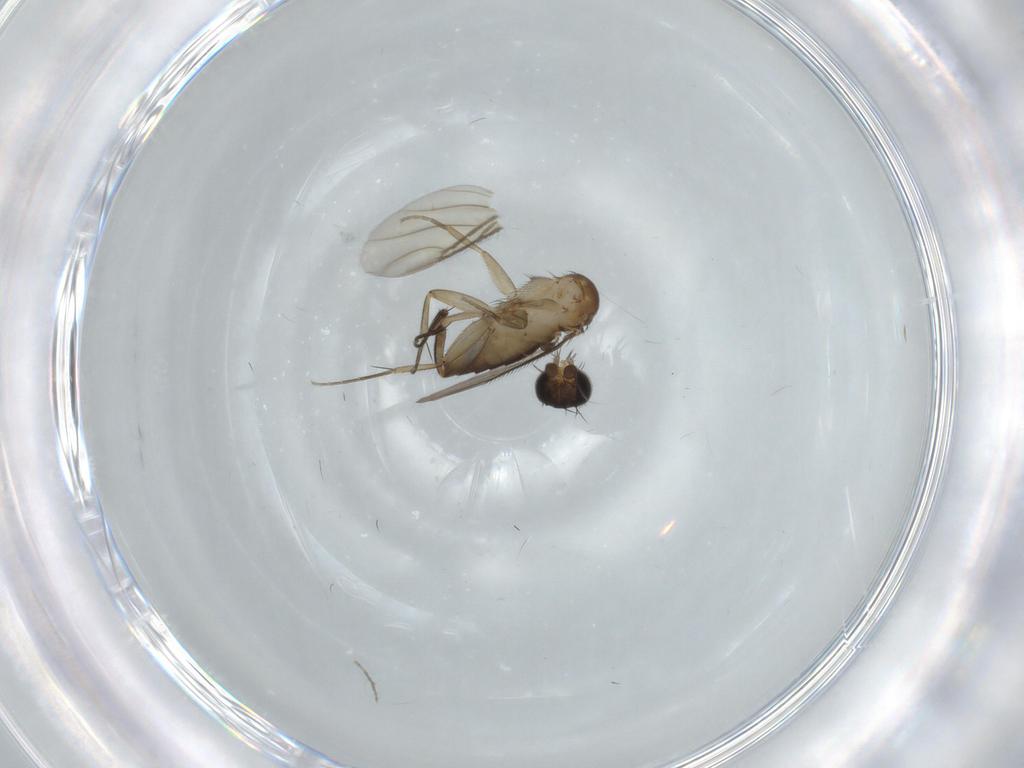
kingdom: Animalia
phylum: Arthropoda
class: Insecta
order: Diptera
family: Phoridae
